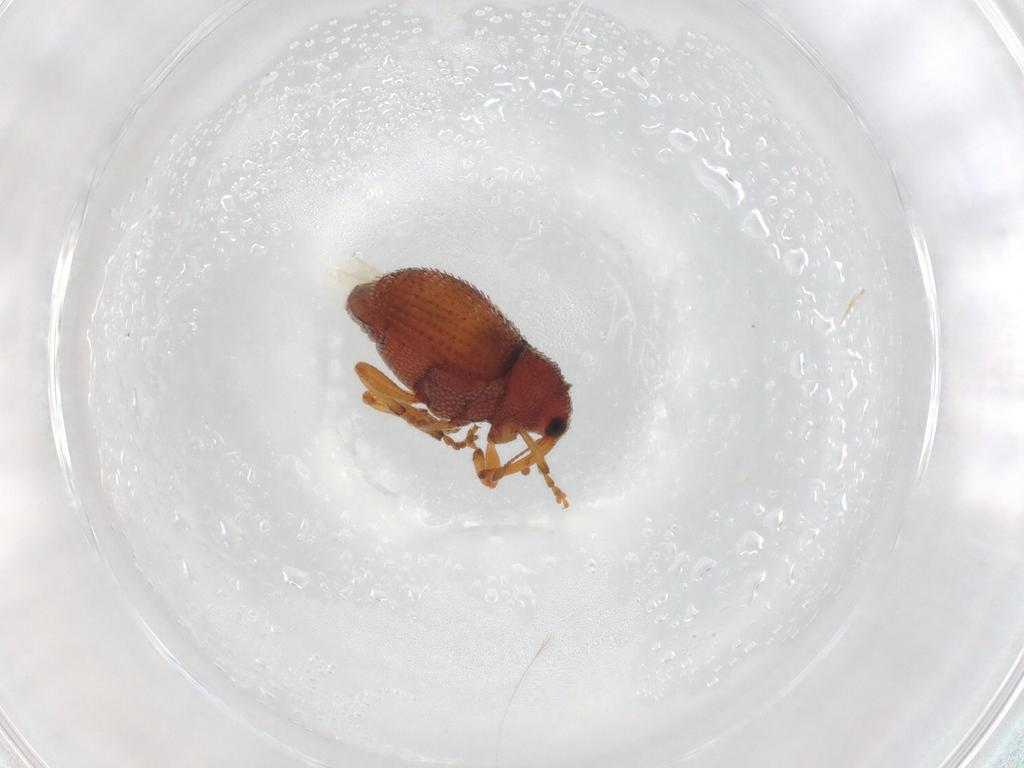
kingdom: Animalia
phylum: Arthropoda
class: Insecta
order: Coleoptera
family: Curculionidae
